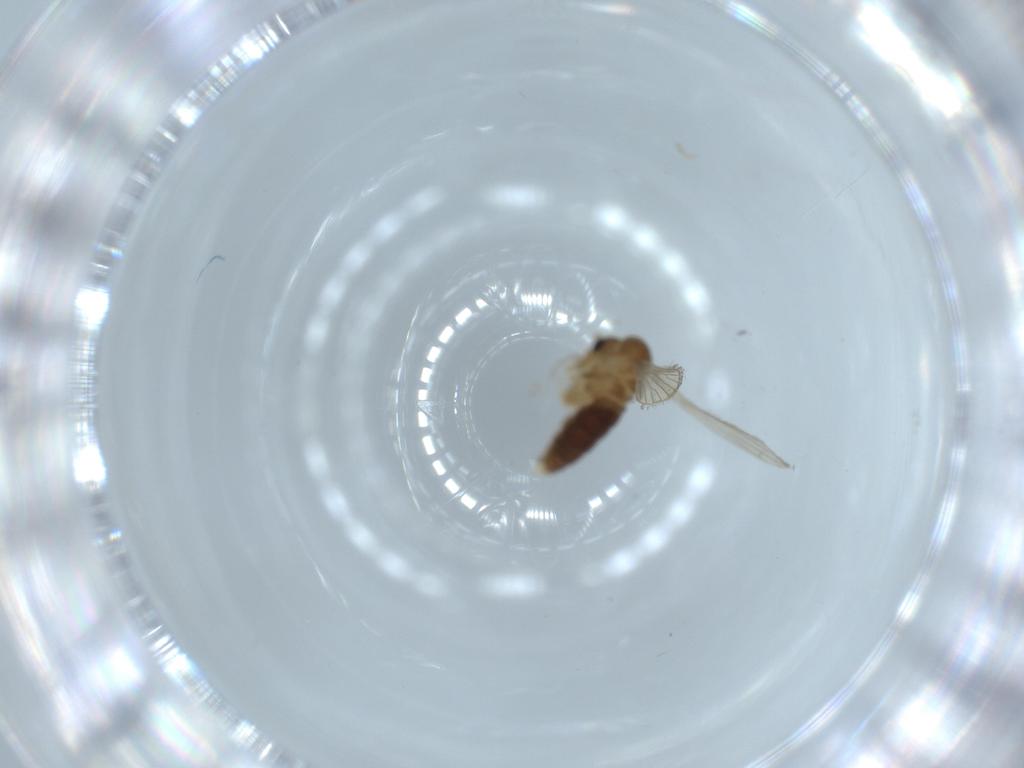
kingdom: Animalia
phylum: Arthropoda
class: Insecta
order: Diptera
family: Psychodidae
